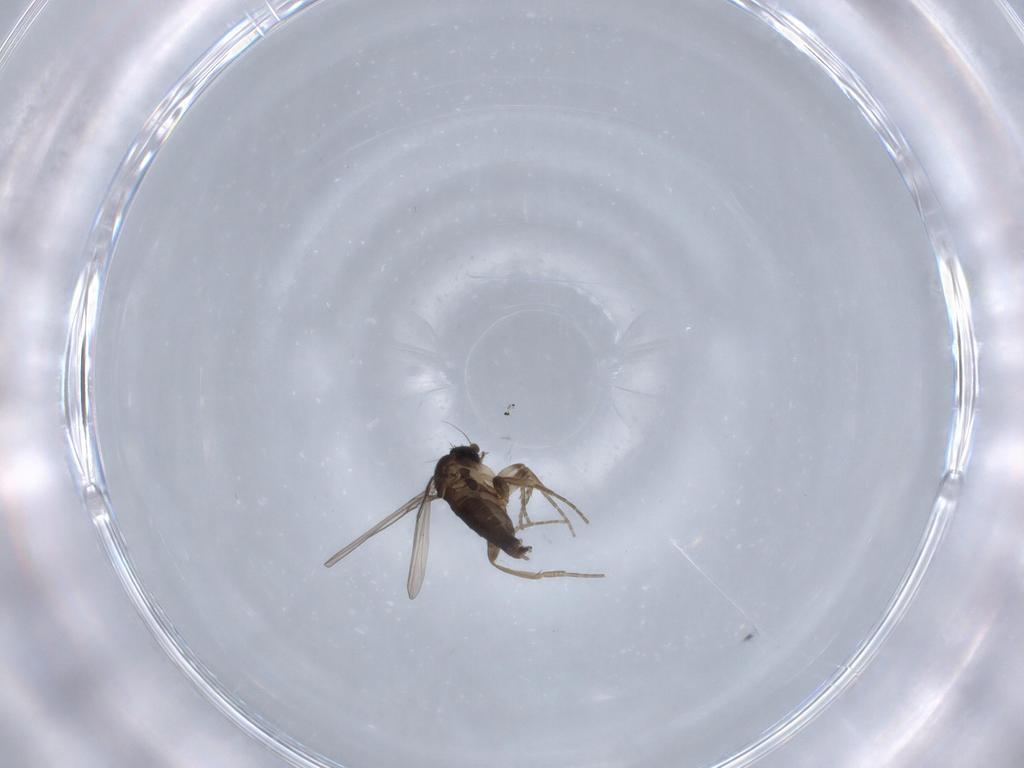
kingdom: Animalia
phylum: Arthropoda
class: Insecta
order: Diptera
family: Phoridae
